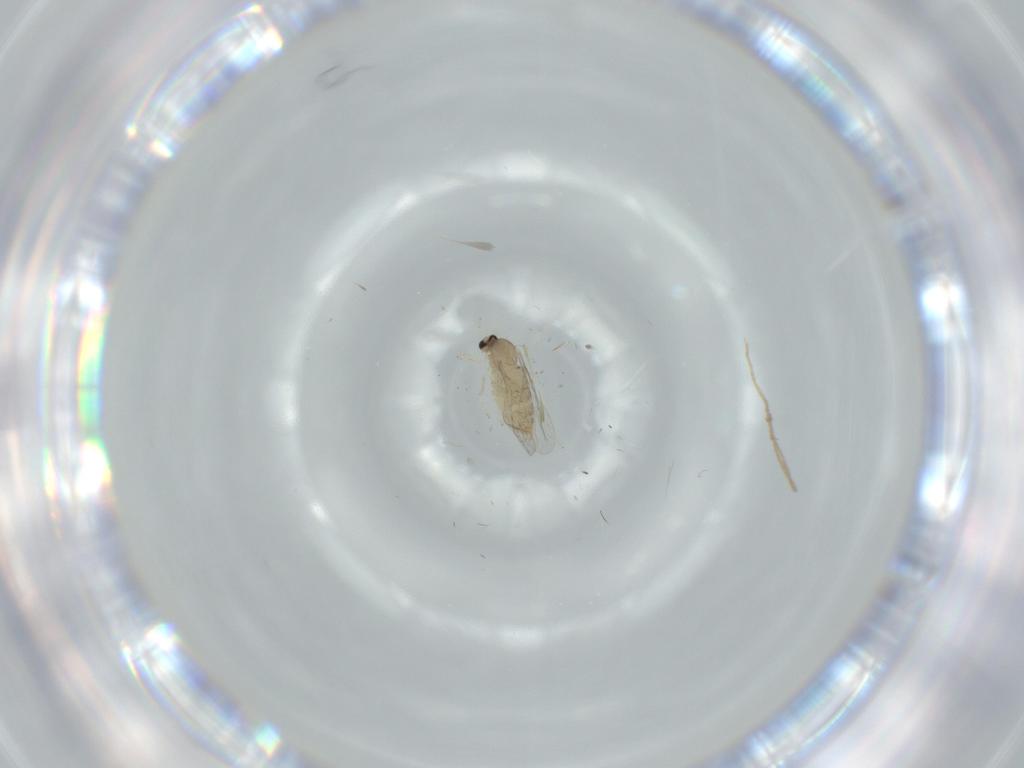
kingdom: Animalia
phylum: Arthropoda
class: Insecta
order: Diptera
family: Cecidomyiidae
